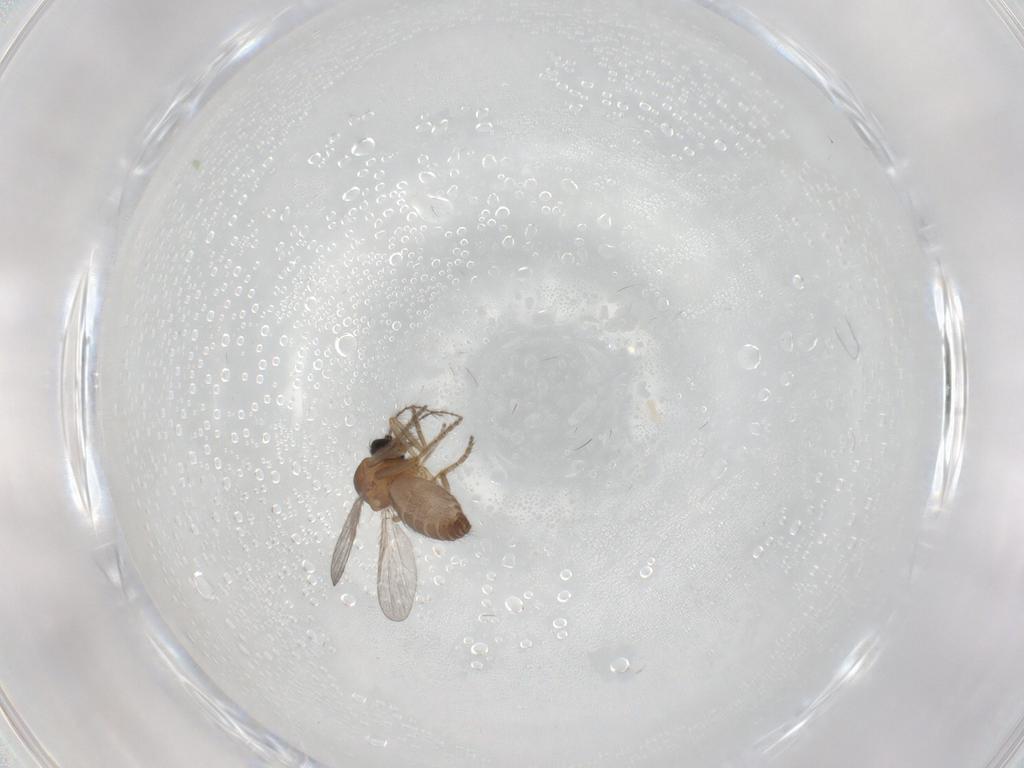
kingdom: Animalia
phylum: Arthropoda
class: Insecta
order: Diptera
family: Ceratopogonidae
